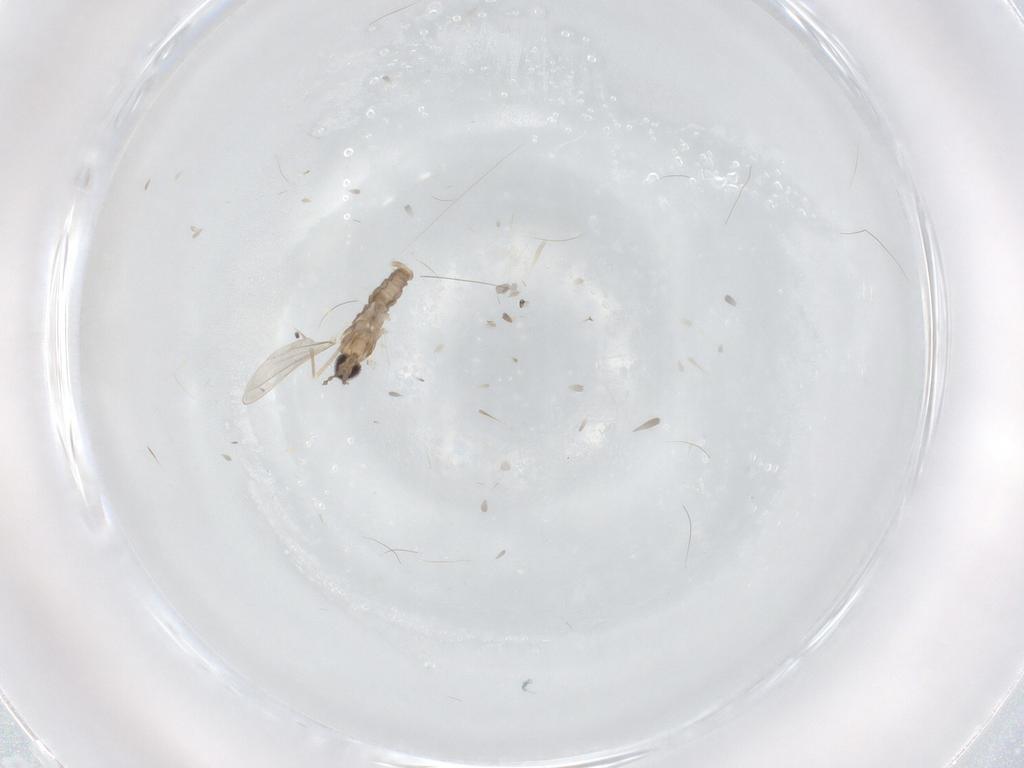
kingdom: Animalia
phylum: Arthropoda
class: Insecta
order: Diptera
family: Cecidomyiidae
